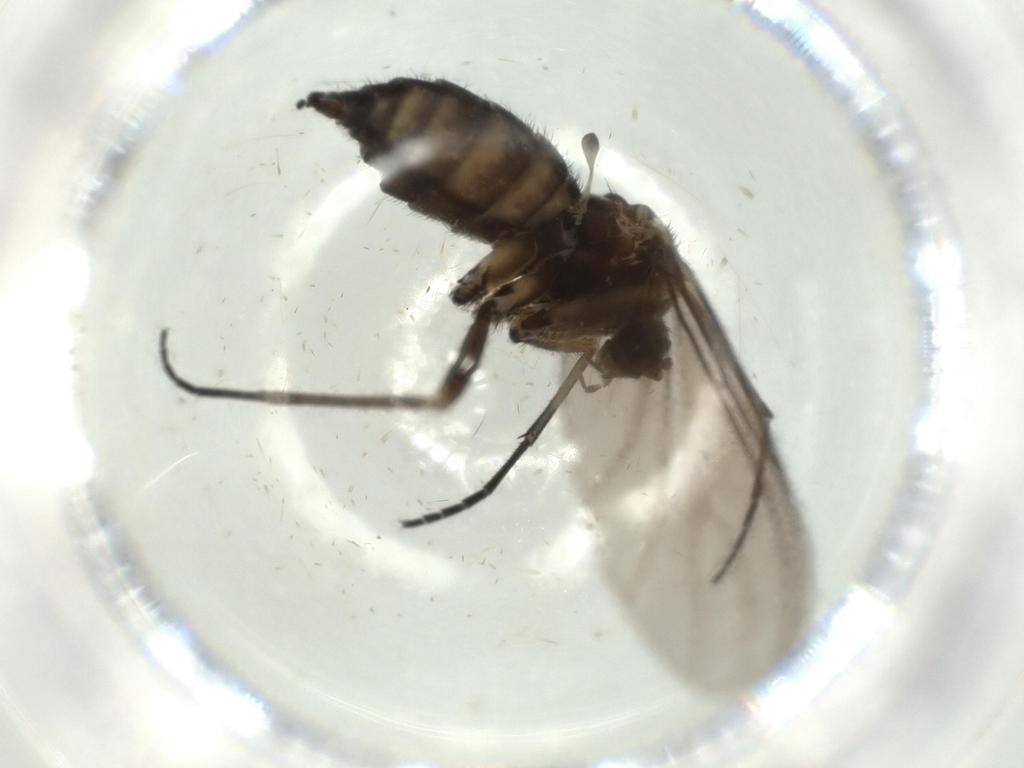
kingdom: Animalia
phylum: Arthropoda
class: Insecta
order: Diptera
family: Sciaridae
